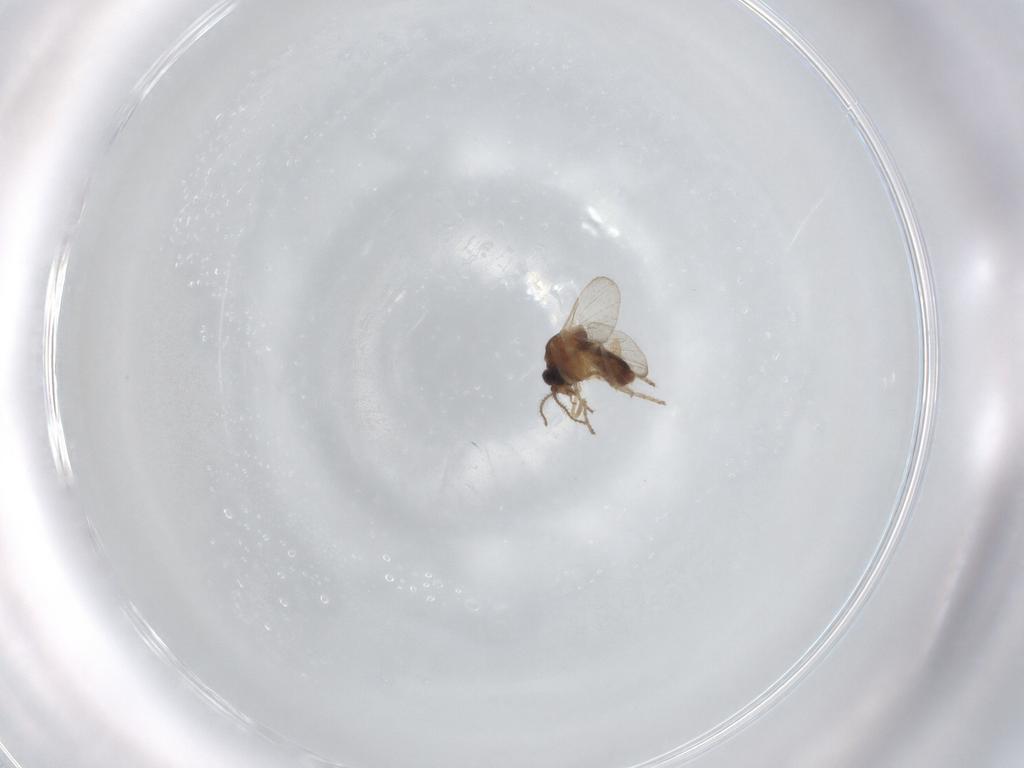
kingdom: Animalia
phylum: Arthropoda
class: Insecta
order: Diptera
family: Ceratopogonidae
